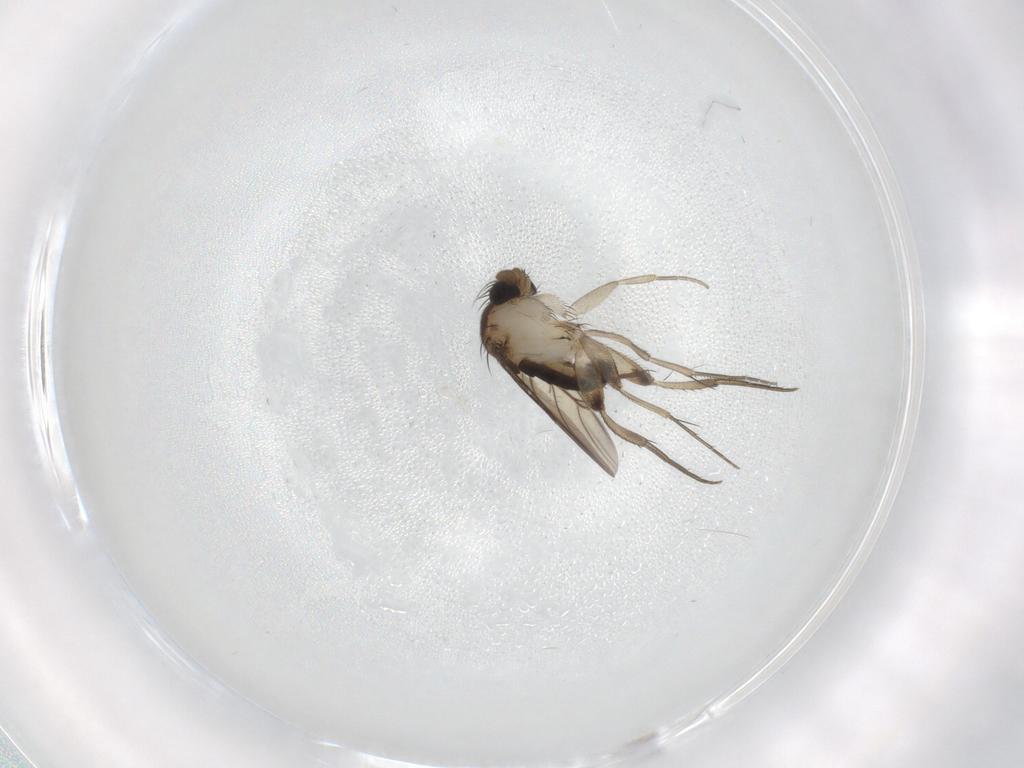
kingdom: Animalia
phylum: Arthropoda
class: Insecta
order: Diptera
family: Phoridae
